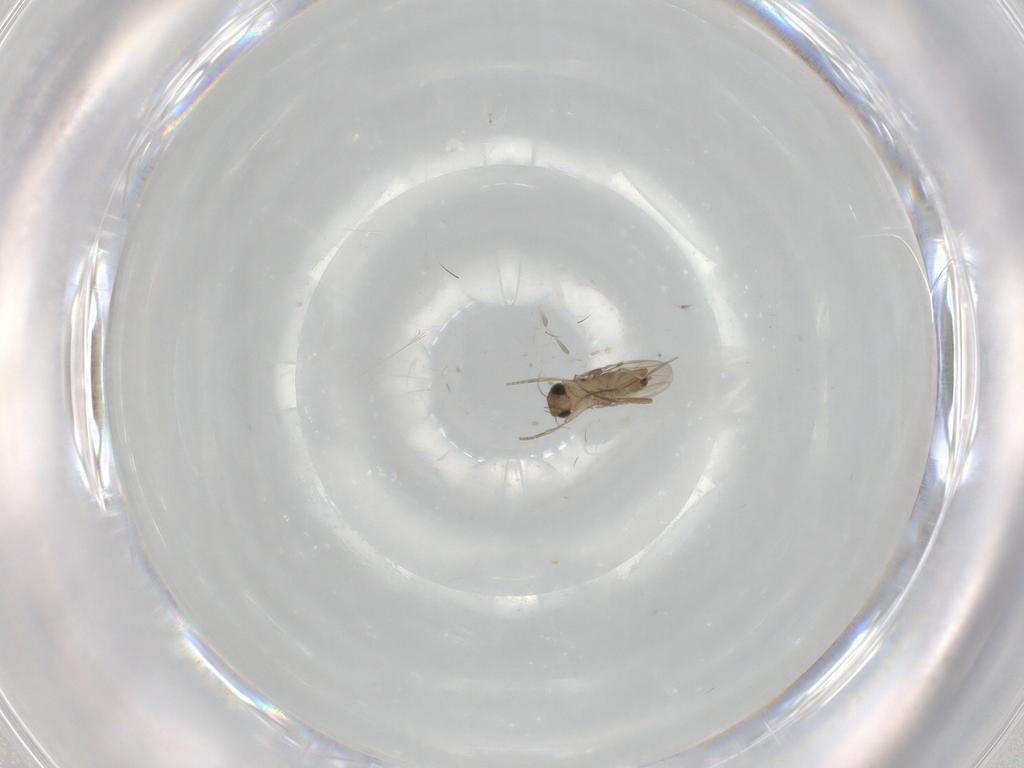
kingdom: Animalia
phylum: Arthropoda
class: Insecta
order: Diptera
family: Phoridae
